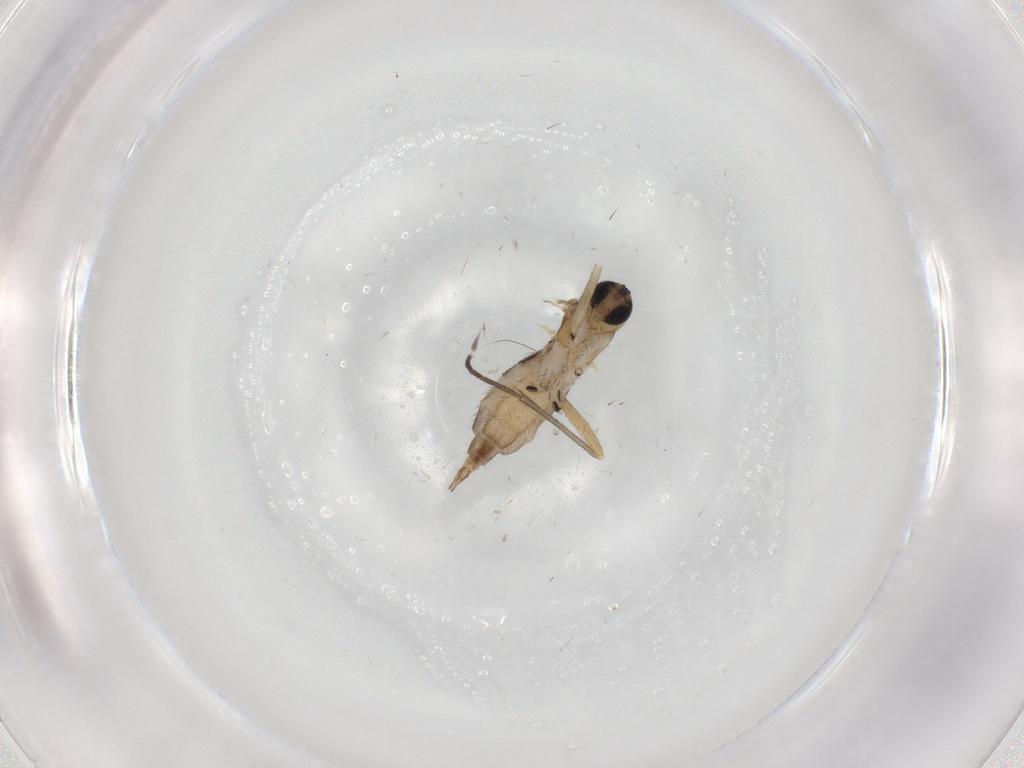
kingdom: Animalia
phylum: Arthropoda
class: Insecta
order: Diptera
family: Sciaridae
